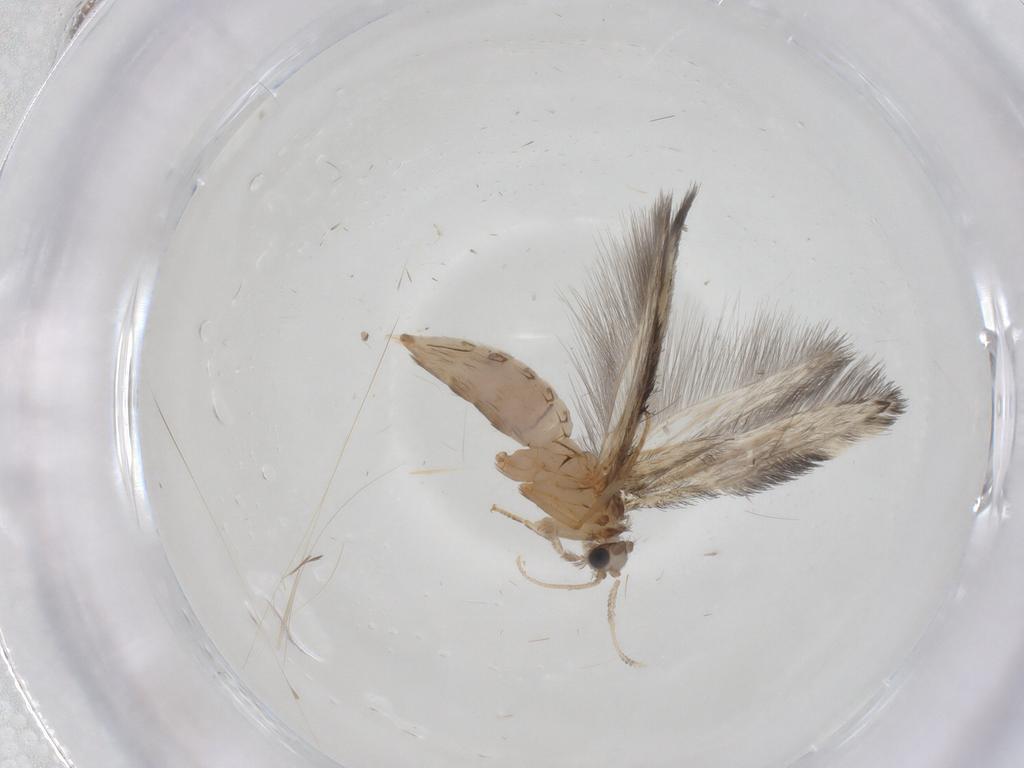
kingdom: Animalia
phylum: Arthropoda
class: Insecta
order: Trichoptera
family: Hydroptilidae
